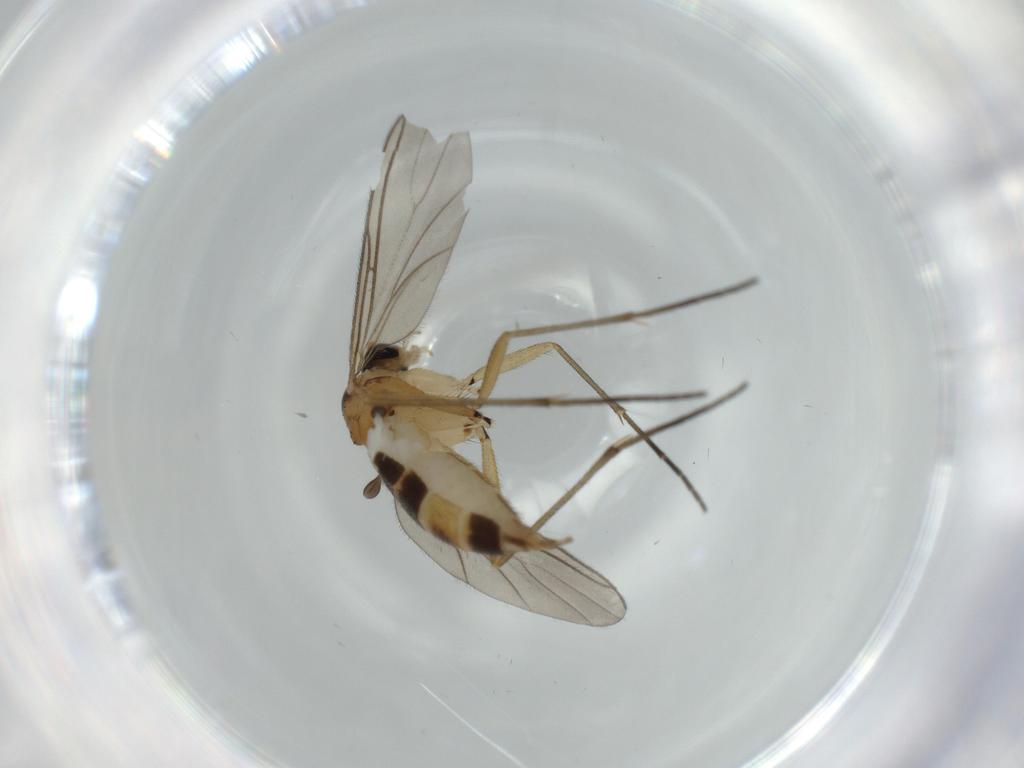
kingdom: Animalia
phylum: Arthropoda
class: Insecta
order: Diptera
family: Sciaridae
